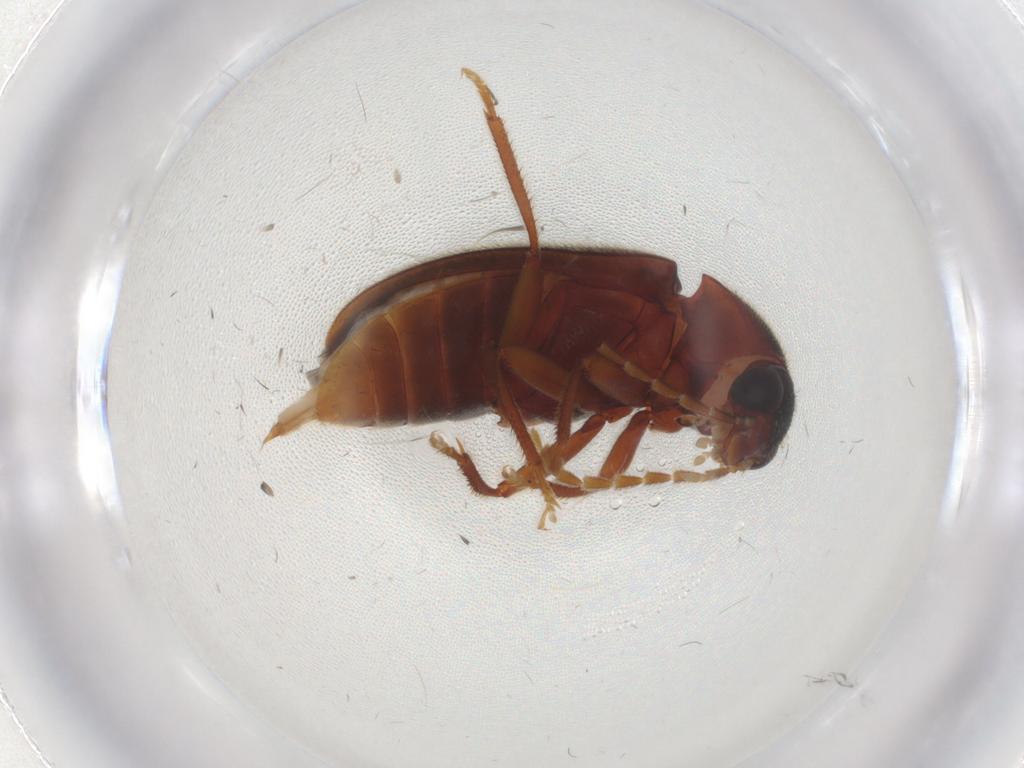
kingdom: Animalia
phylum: Arthropoda
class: Insecta
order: Coleoptera
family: Ptilodactylidae
